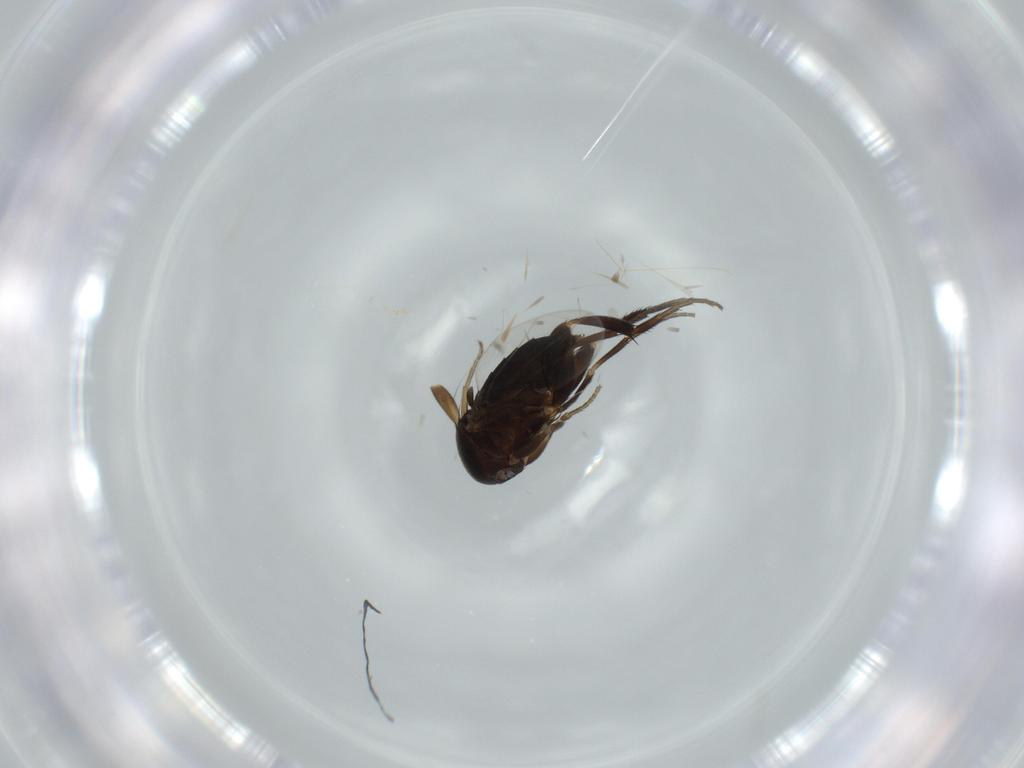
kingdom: Animalia
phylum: Arthropoda
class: Insecta
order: Diptera
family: Phoridae
